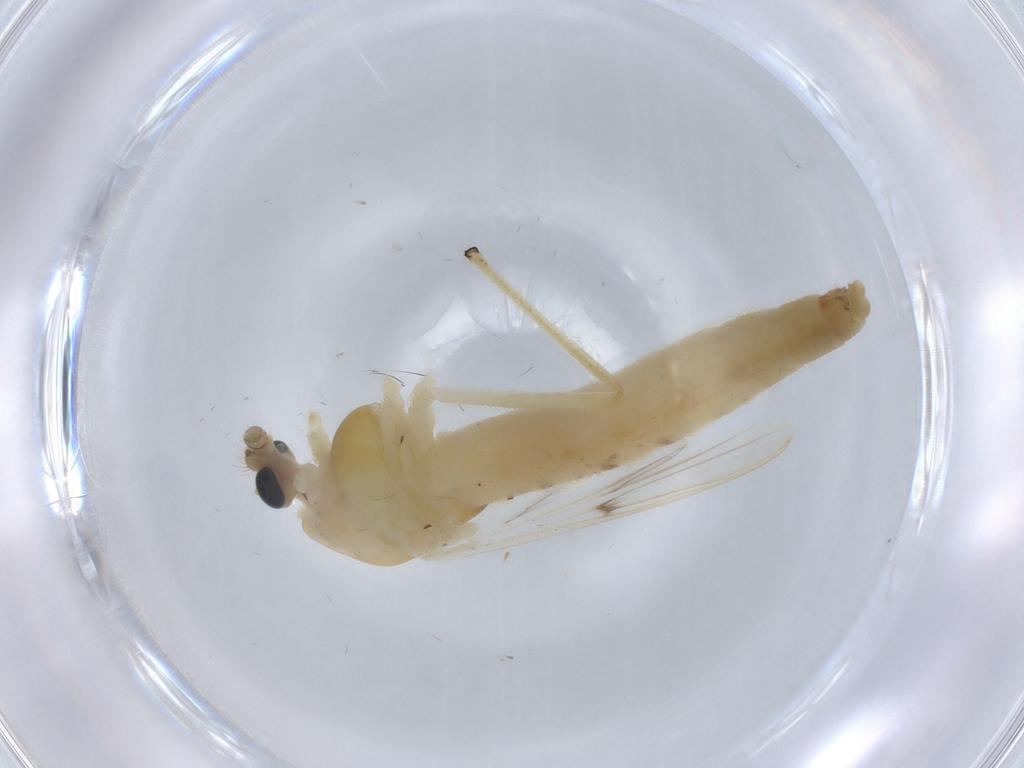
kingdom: Animalia
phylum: Arthropoda
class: Insecta
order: Diptera
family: Chironomidae
